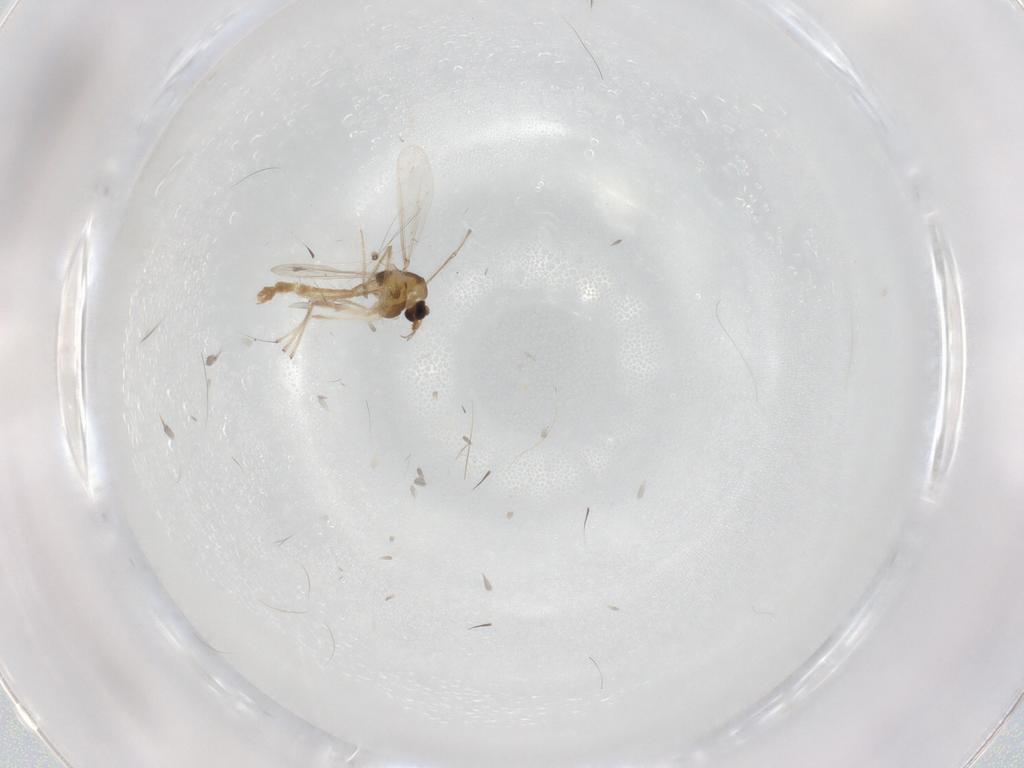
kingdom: Animalia
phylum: Arthropoda
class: Insecta
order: Diptera
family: Chironomidae
